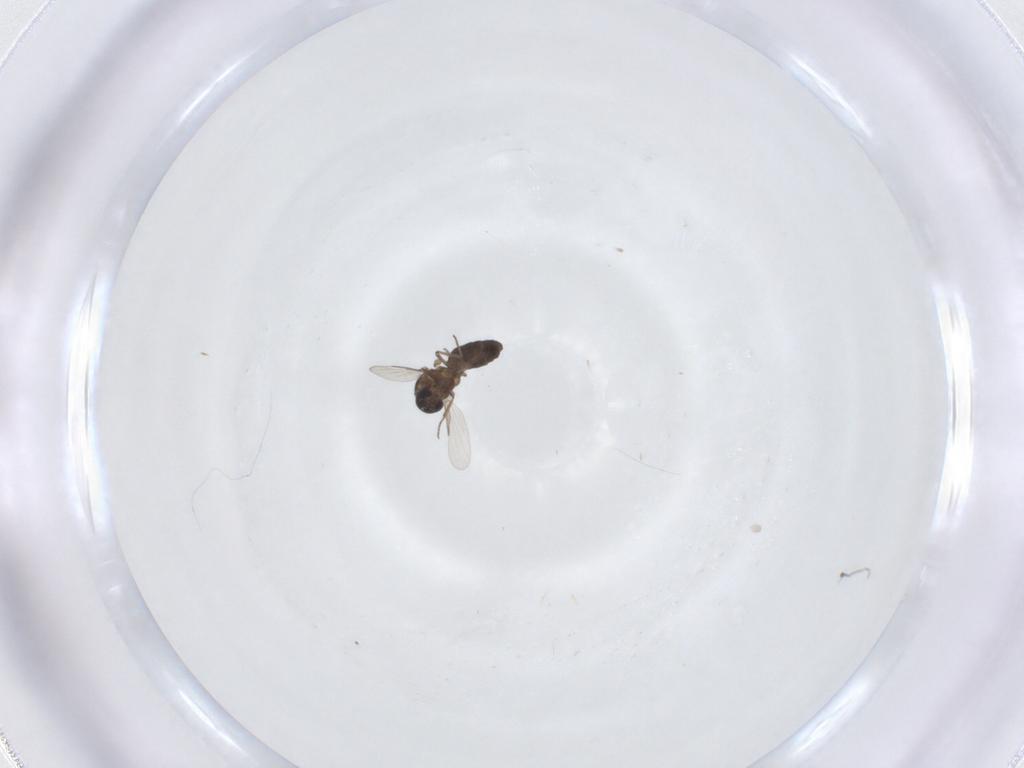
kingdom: Animalia
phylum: Arthropoda
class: Insecta
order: Diptera
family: Ceratopogonidae
